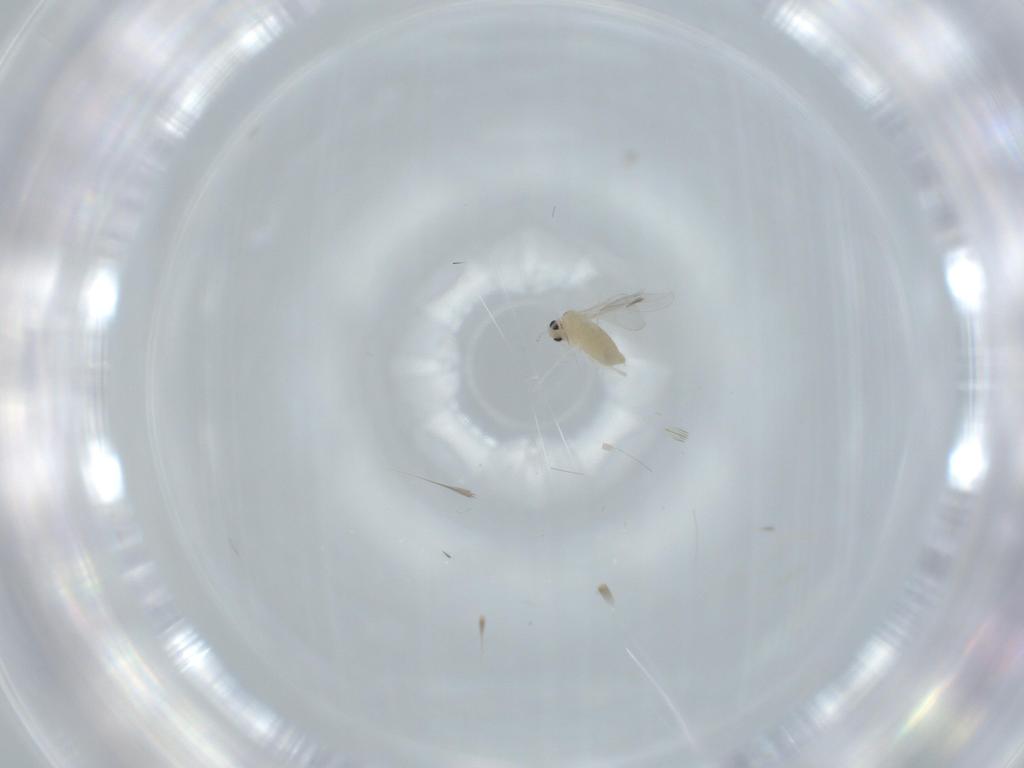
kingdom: Animalia
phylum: Arthropoda
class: Insecta
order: Diptera
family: Cecidomyiidae
